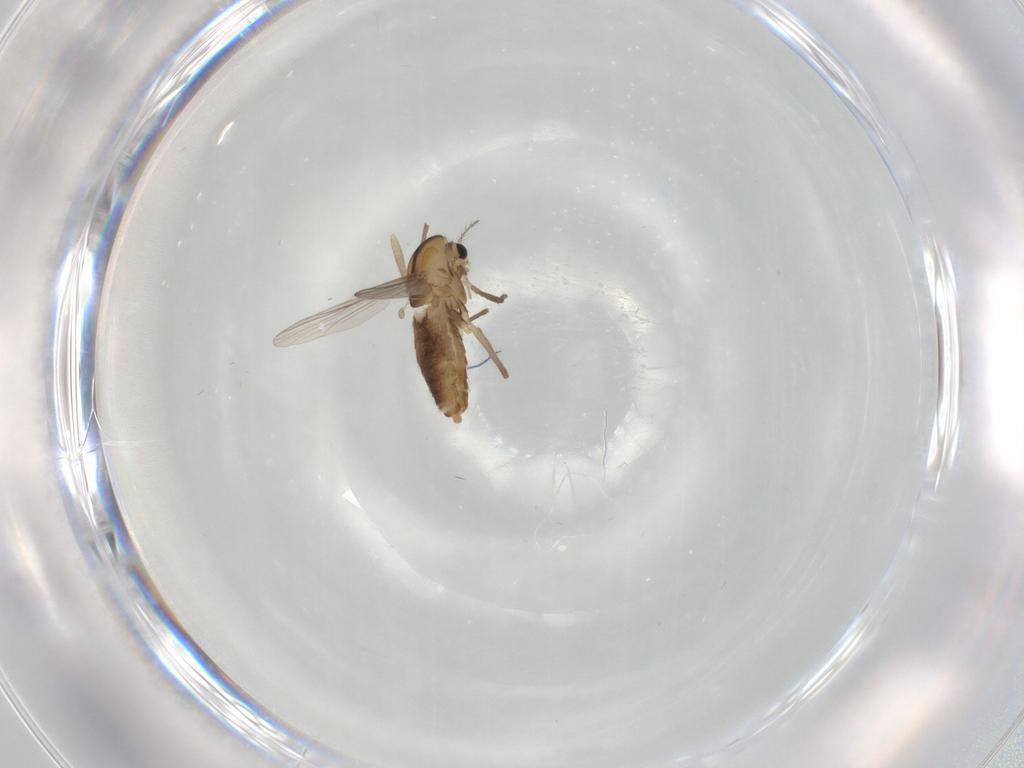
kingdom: Animalia
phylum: Arthropoda
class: Insecta
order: Diptera
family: Chironomidae
